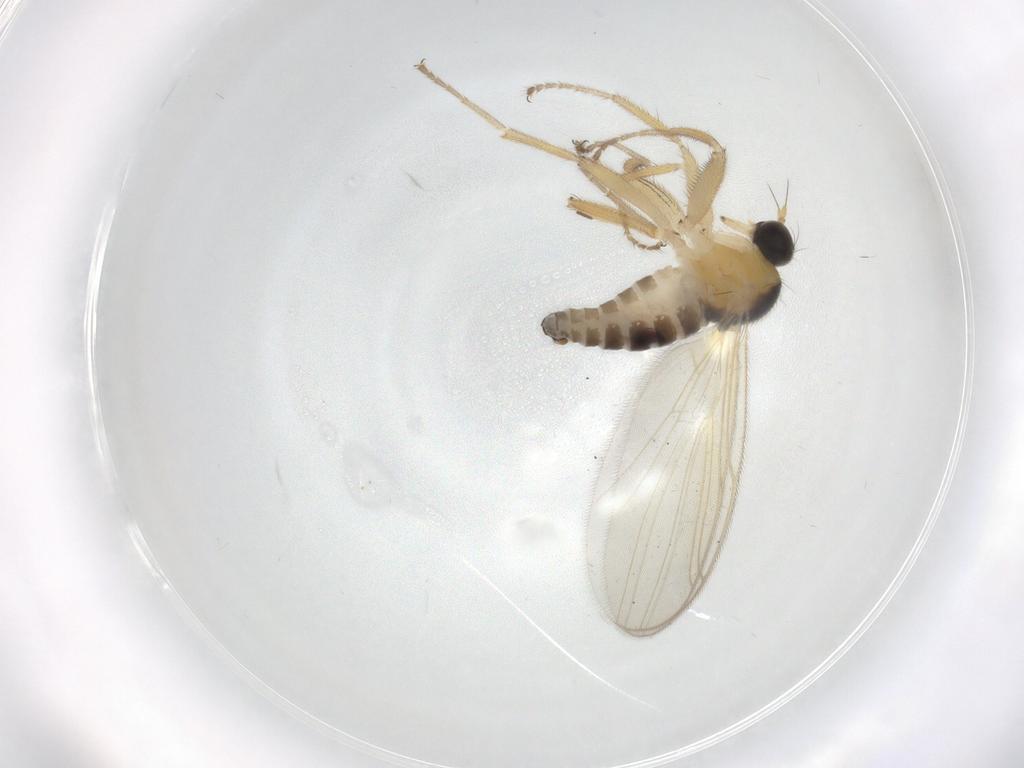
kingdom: Animalia
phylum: Arthropoda
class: Insecta
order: Diptera
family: Hybotidae
